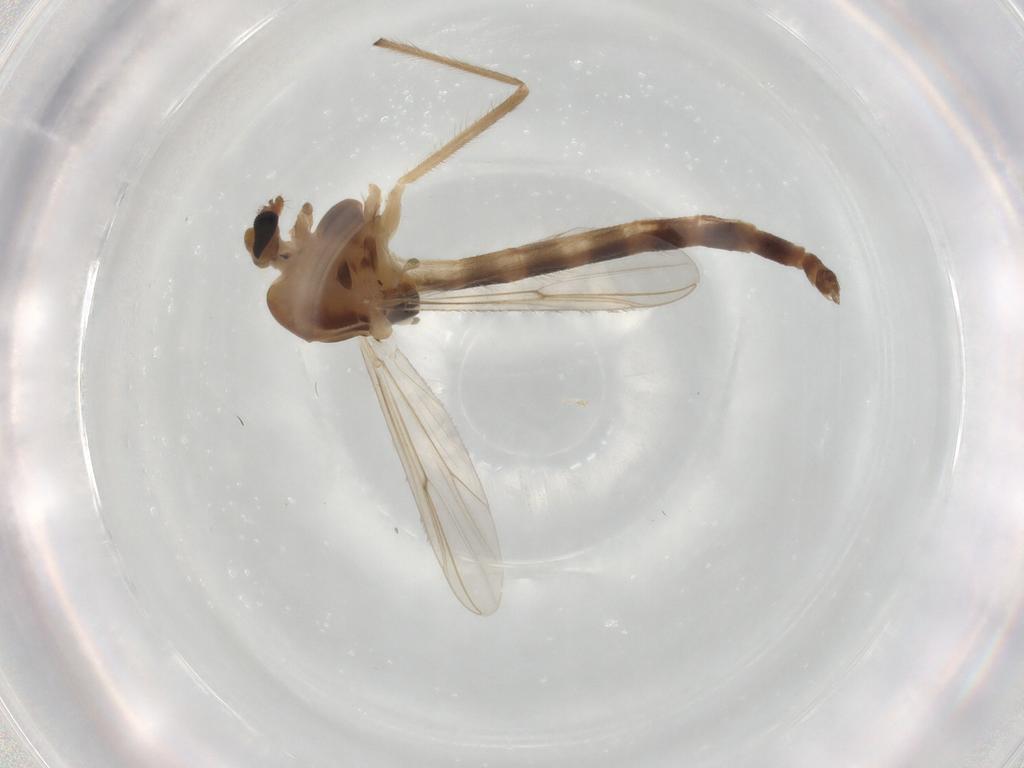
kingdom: Animalia
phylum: Arthropoda
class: Insecta
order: Diptera
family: Chironomidae
